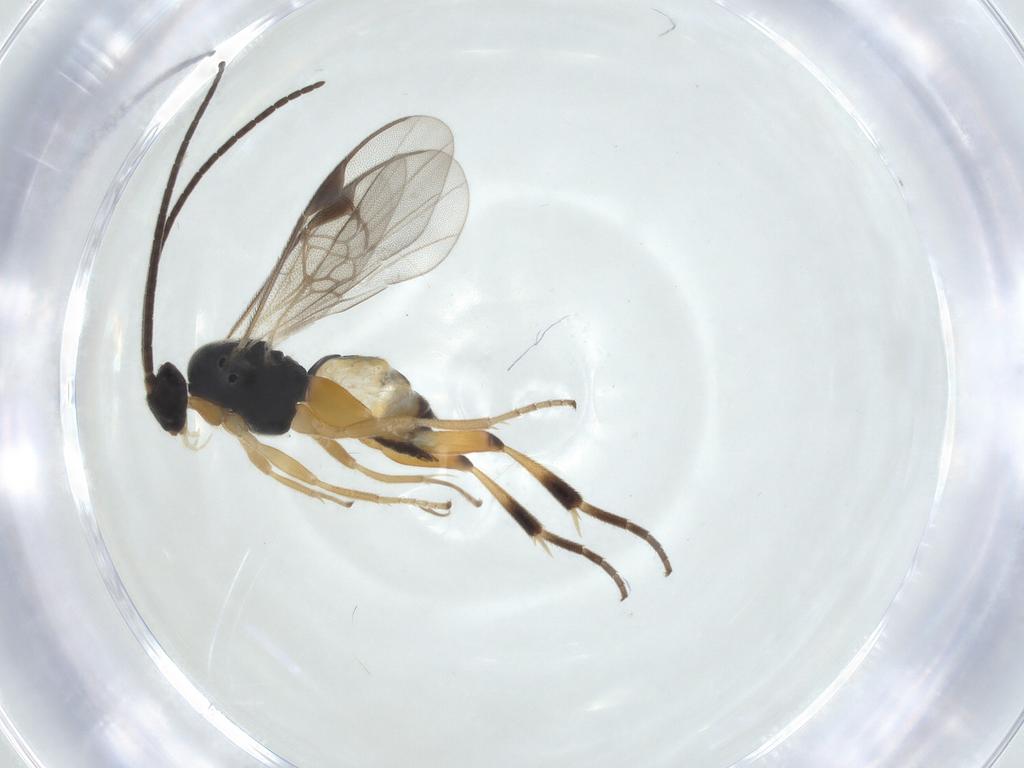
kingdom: Animalia
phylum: Arthropoda
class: Insecta
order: Hymenoptera
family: Braconidae
